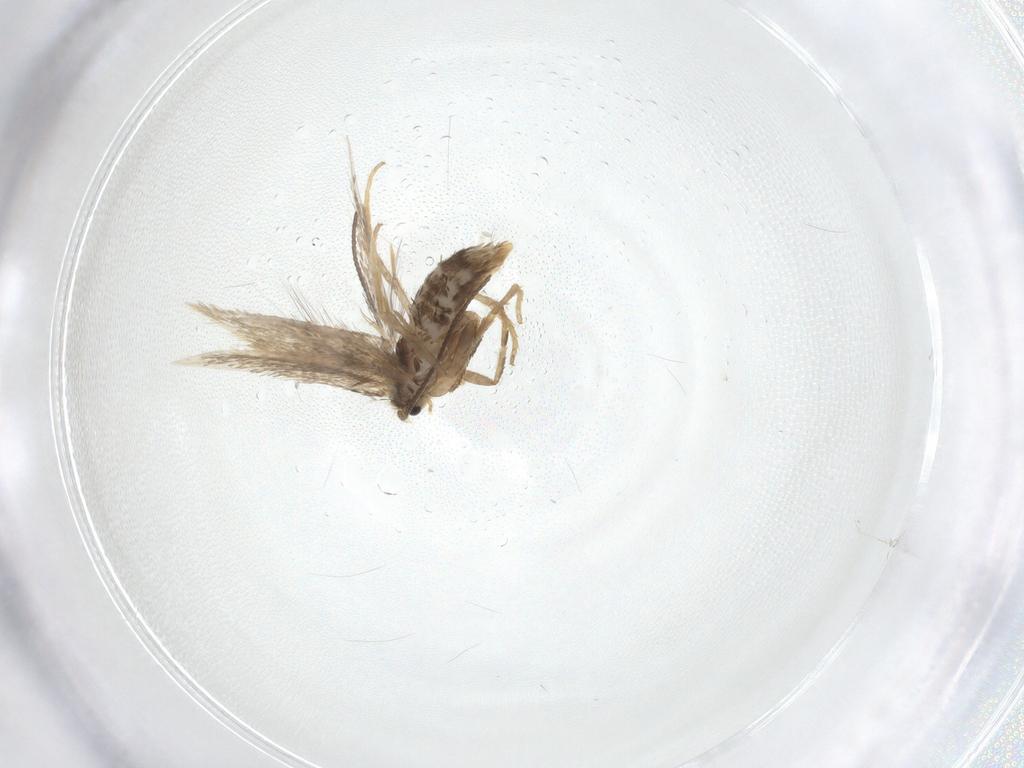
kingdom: Animalia
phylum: Arthropoda
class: Insecta
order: Lepidoptera
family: Nepticulidae
